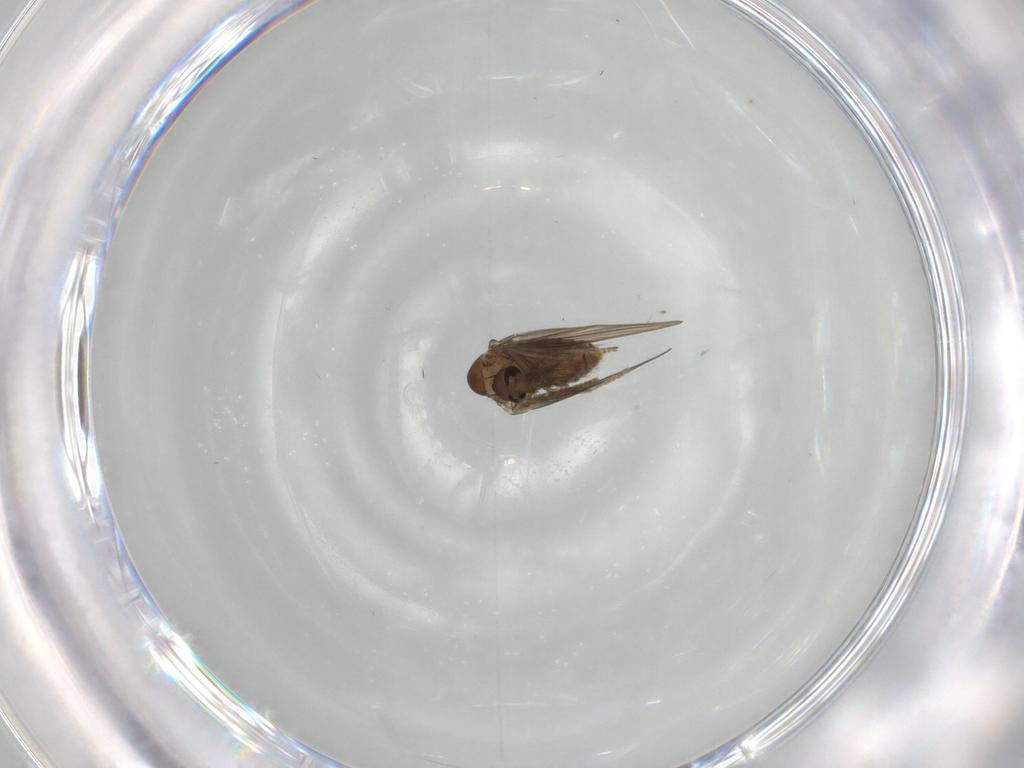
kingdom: Animalia
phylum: Arthropoda
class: Insecta
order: Diptera
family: Psychodidae
